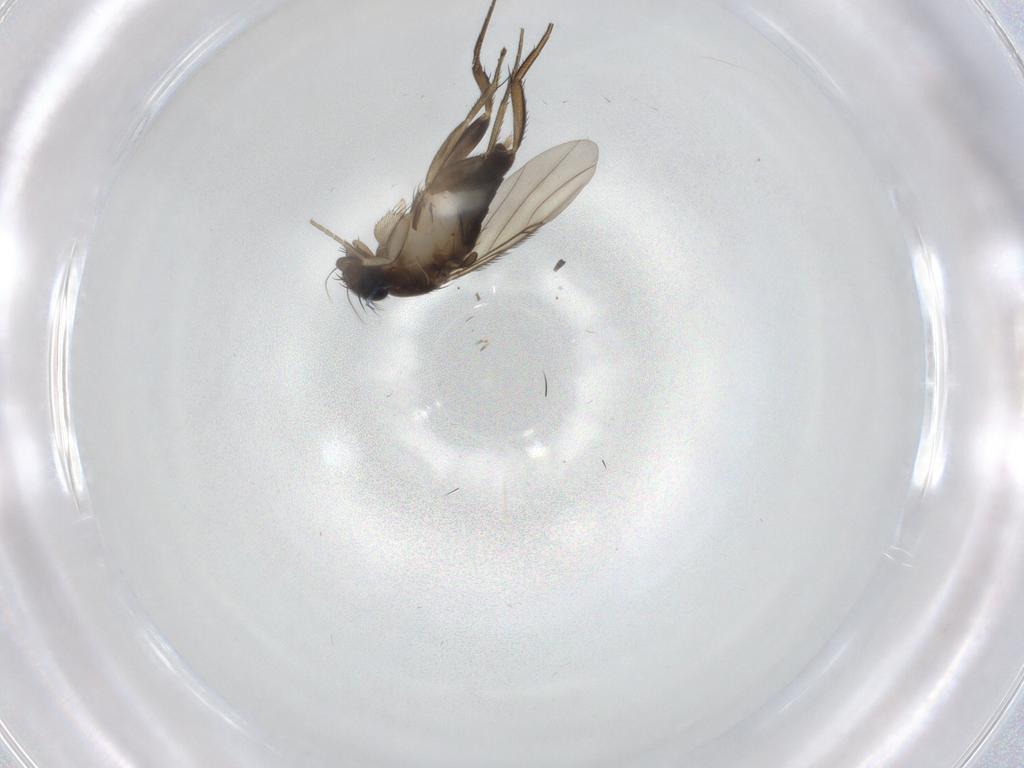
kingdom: Animalia
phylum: Arthropoda
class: Insecta
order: Diptera
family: Phoridae
